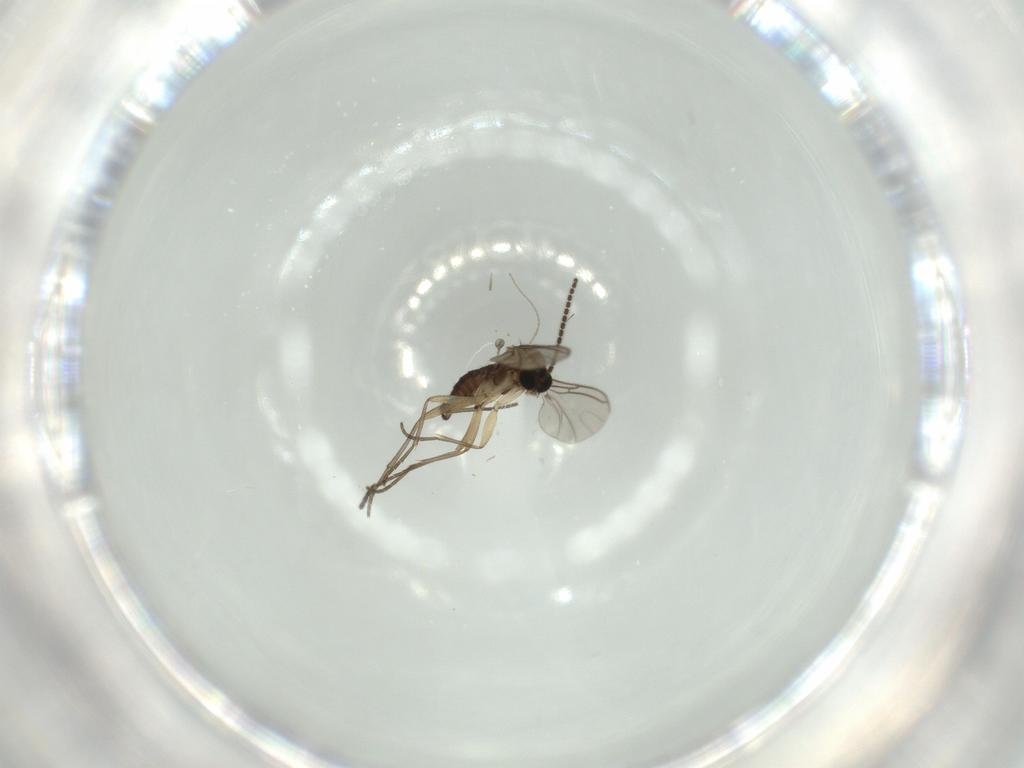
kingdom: Animalia
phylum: Arthropoda
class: Insecta
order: Diptera
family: Sciaridae
